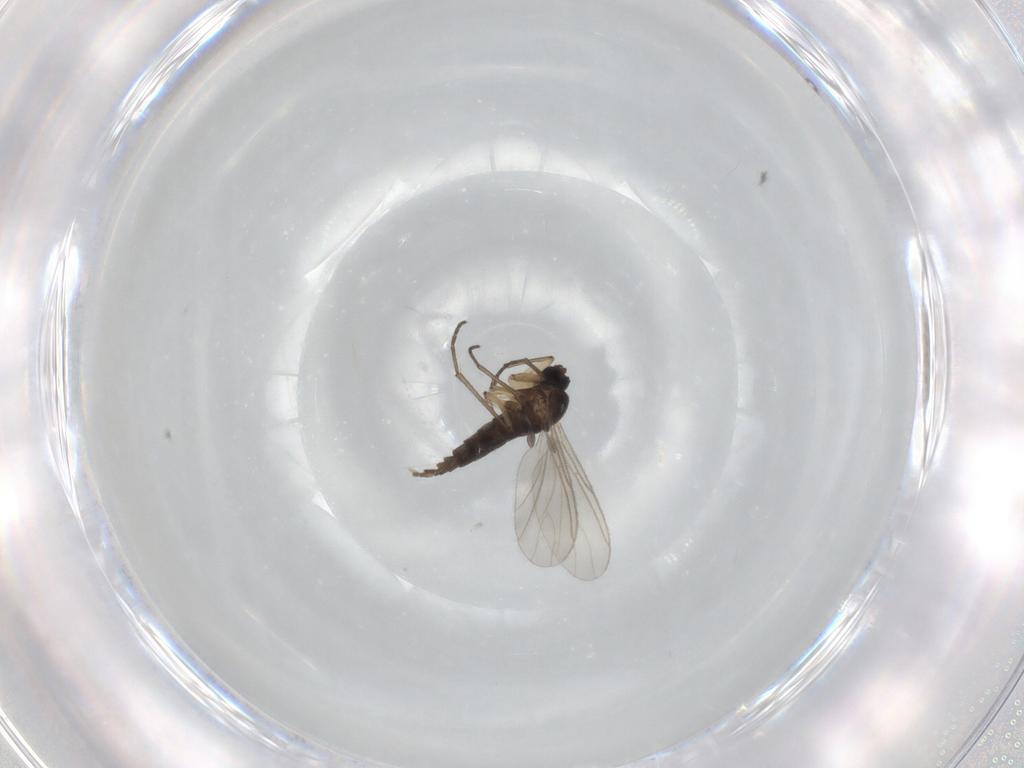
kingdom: Animalia
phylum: Arthropoda
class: Insecta
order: Diptera
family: Sciaridae
